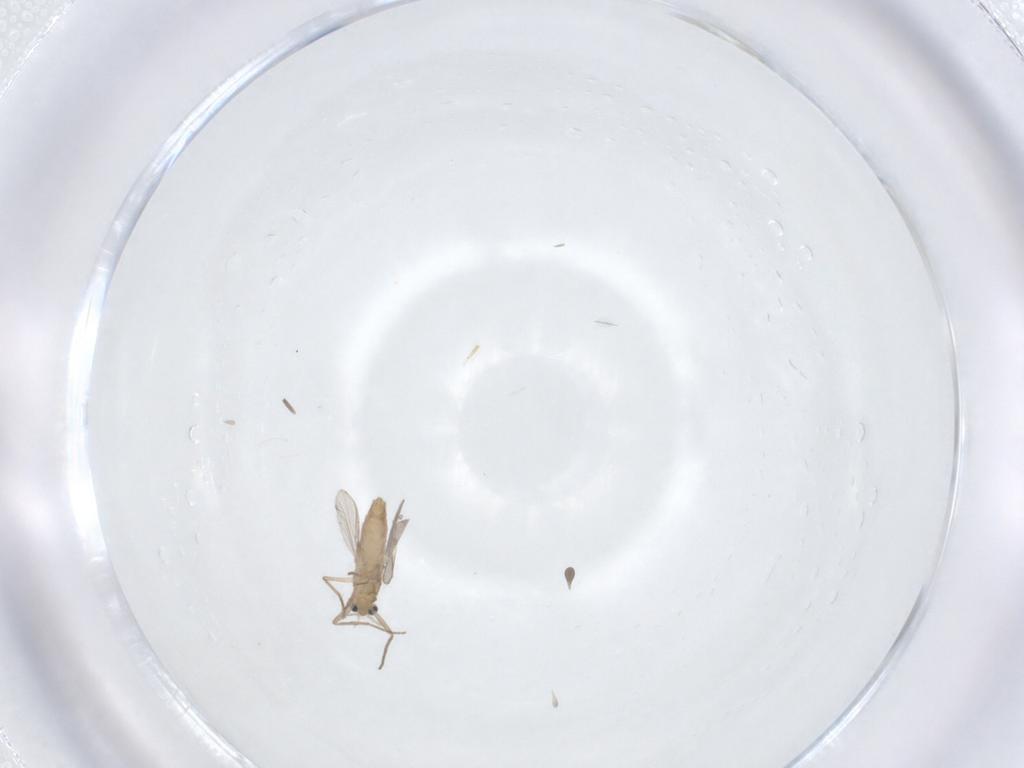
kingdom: Animalia
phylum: Arthropoda
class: Insecta
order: Diptera
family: Chironomidae
